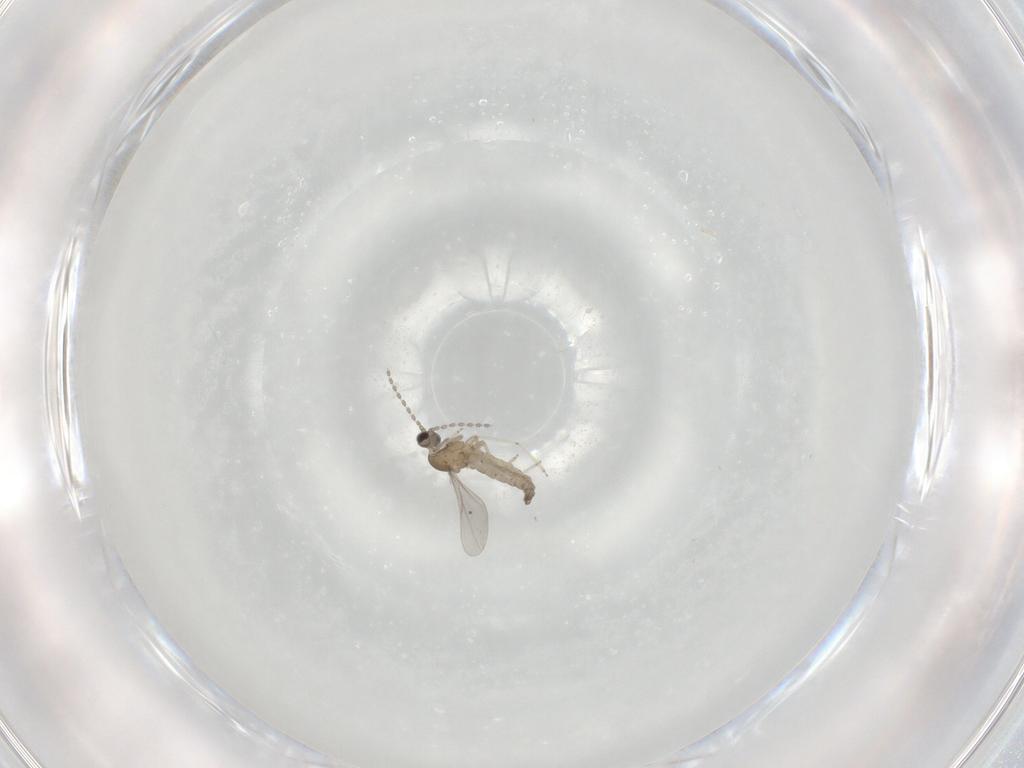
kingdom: Animalia
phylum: Arthropoda
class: Insecta
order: Diptera
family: Cecidomyiidae
